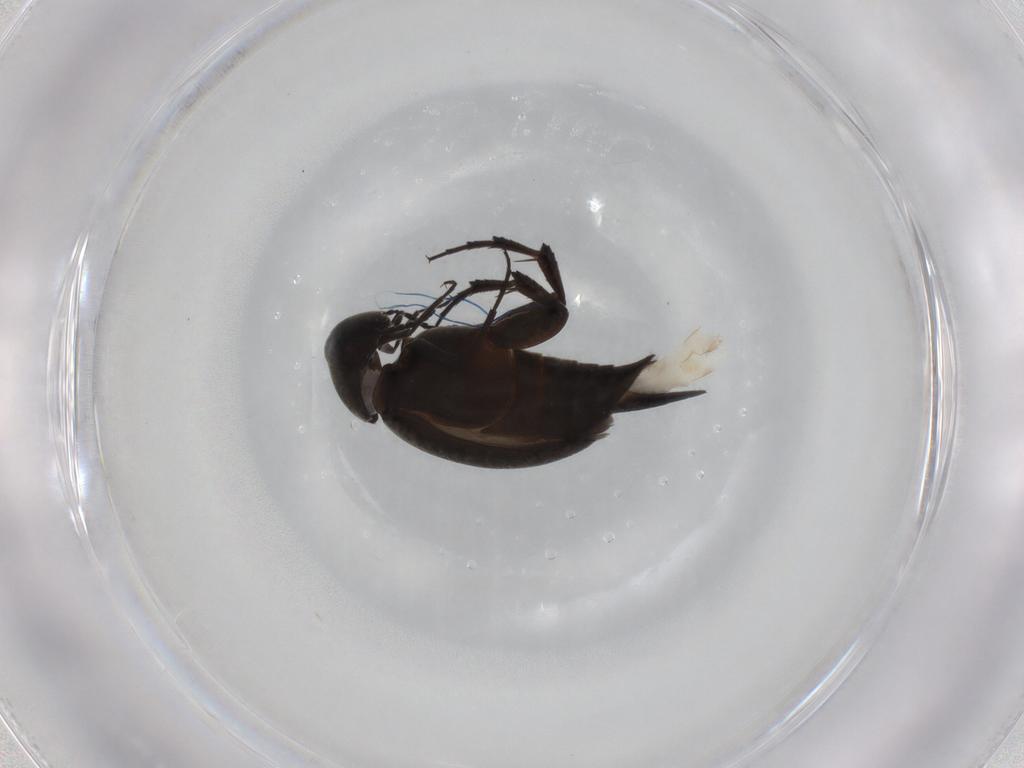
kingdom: Animalia
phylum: Arthropoda
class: Insecta
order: Coleoptera
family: Mordellidae
